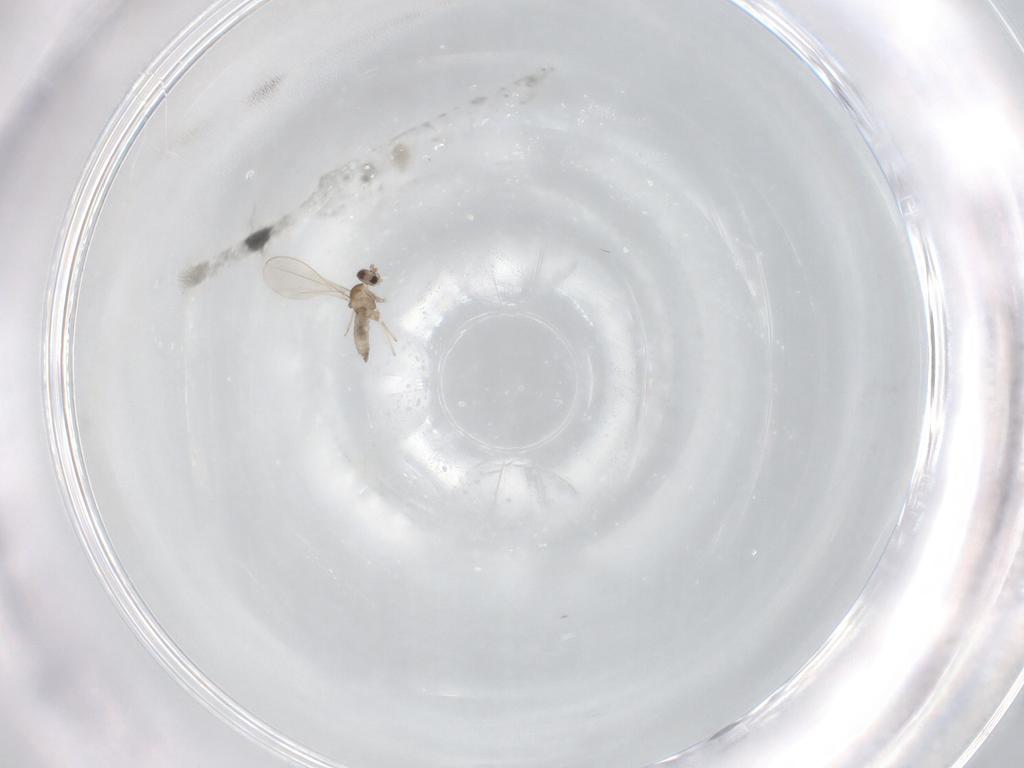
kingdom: Animalia
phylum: Arthropoda
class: Insecta
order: Diptera
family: Cecidomyiidae
